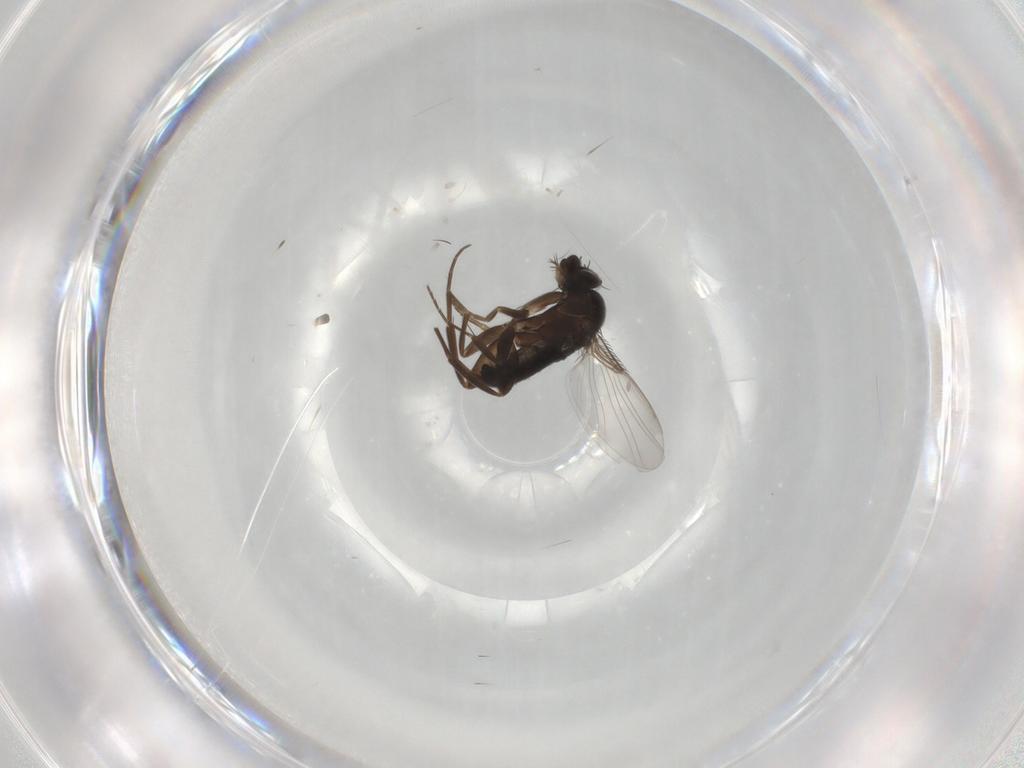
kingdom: Animalia
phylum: Arthropoda
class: Insecta
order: Diptera
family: Phoridae
